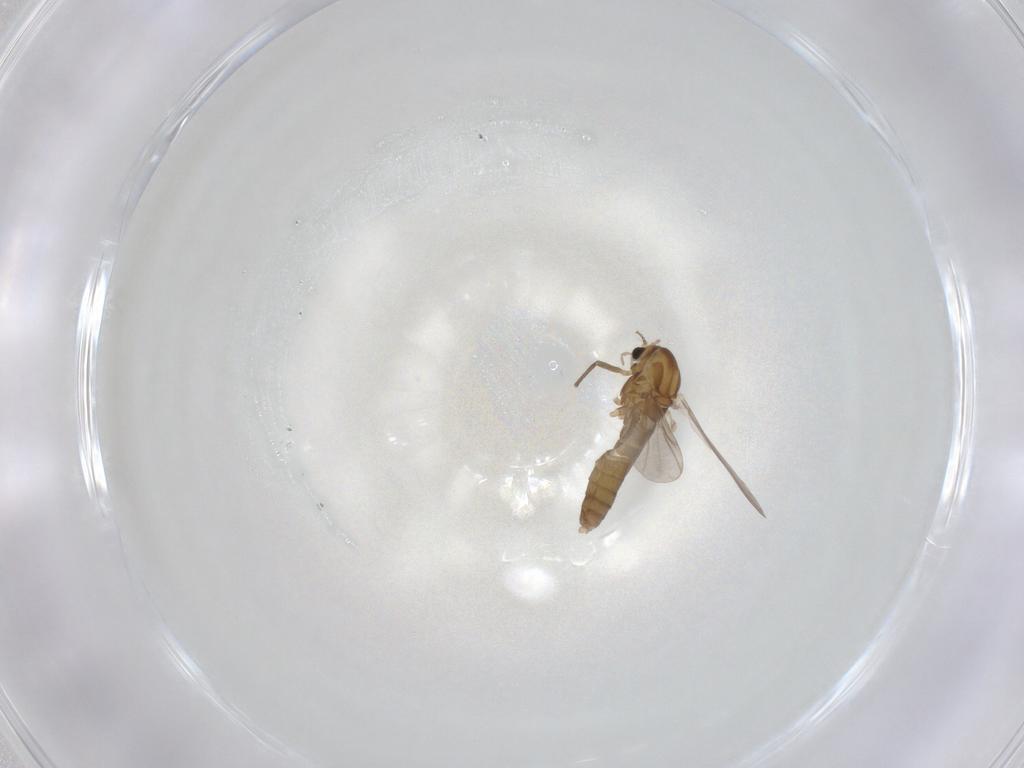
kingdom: Animalia
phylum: Arthropoda
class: Insecta
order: Diptera
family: Chironomidae
